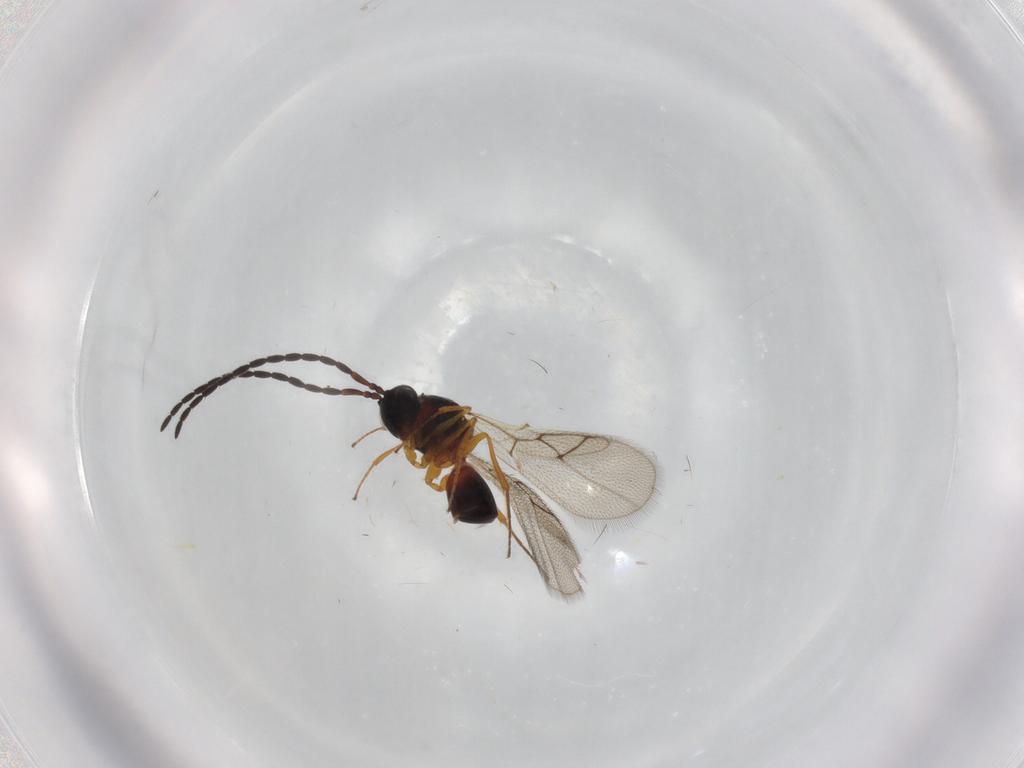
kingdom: Animalia
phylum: Arthropoda
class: Insecta
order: Hymenoptera
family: Figitidae
